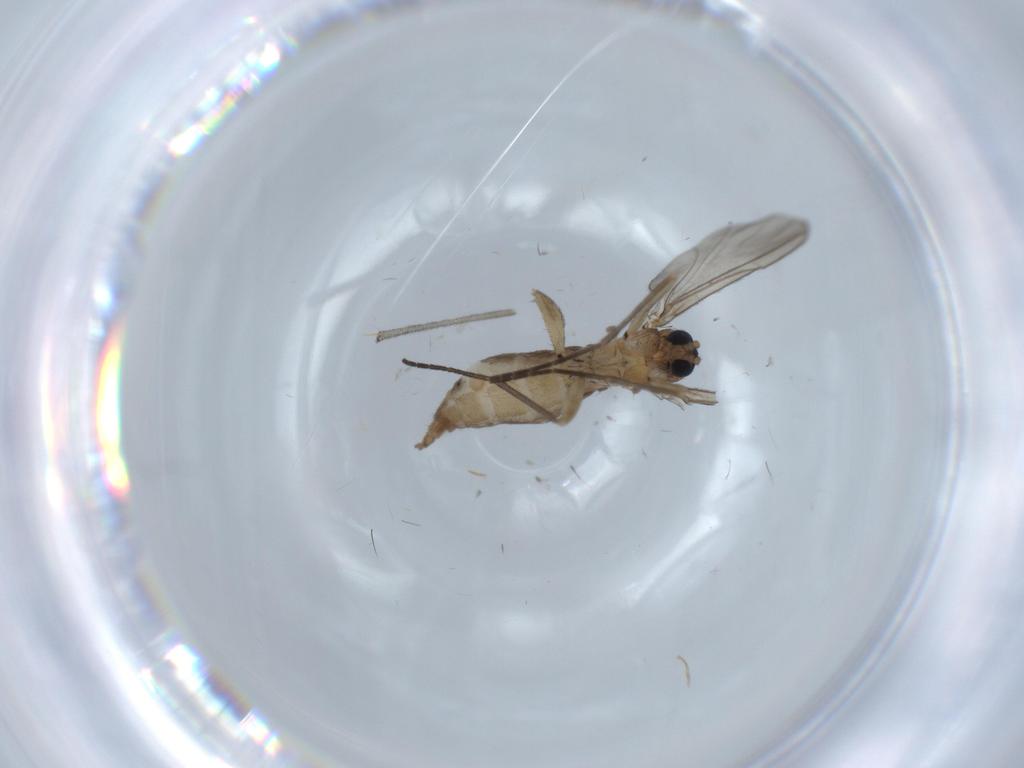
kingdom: Animalia
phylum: Arthropoda
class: Insecta
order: Diptera
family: Sciaridae
